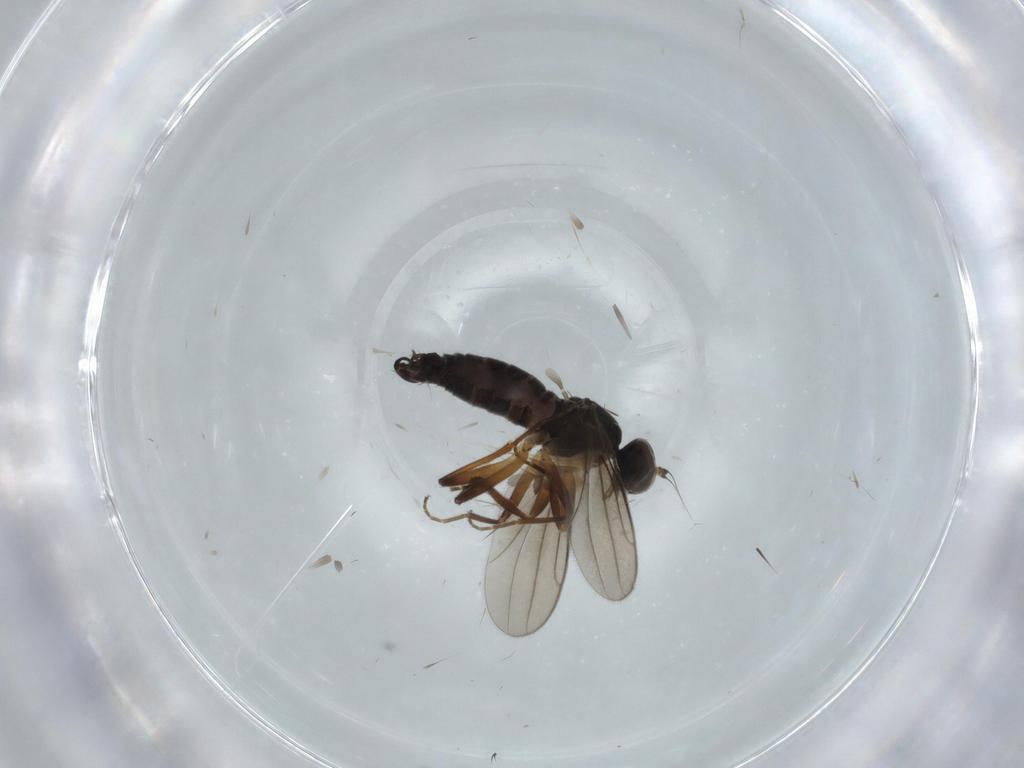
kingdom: Animalia
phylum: Arthropoda
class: Insecta
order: Diptera
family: Hybotidae
